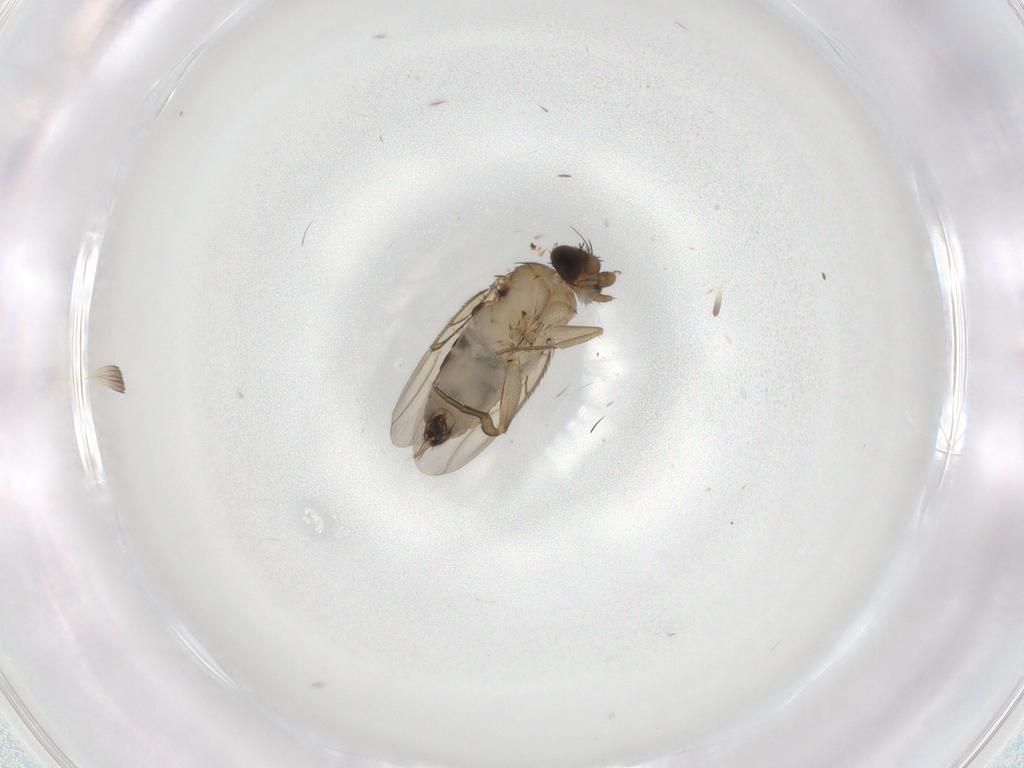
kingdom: Animalia
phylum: Arthropoda
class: Insecta
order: Diptera
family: Psychodidae
